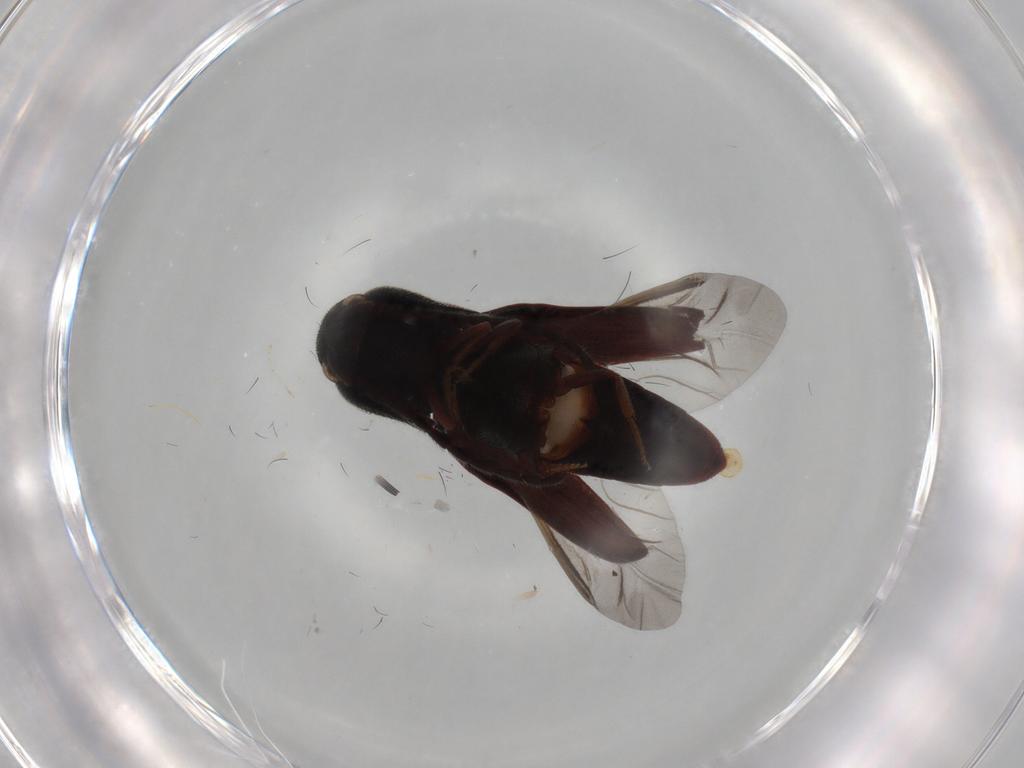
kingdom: Animalia
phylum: Arthropoda
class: Insecta
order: Coleoptera
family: Eucnemidae
